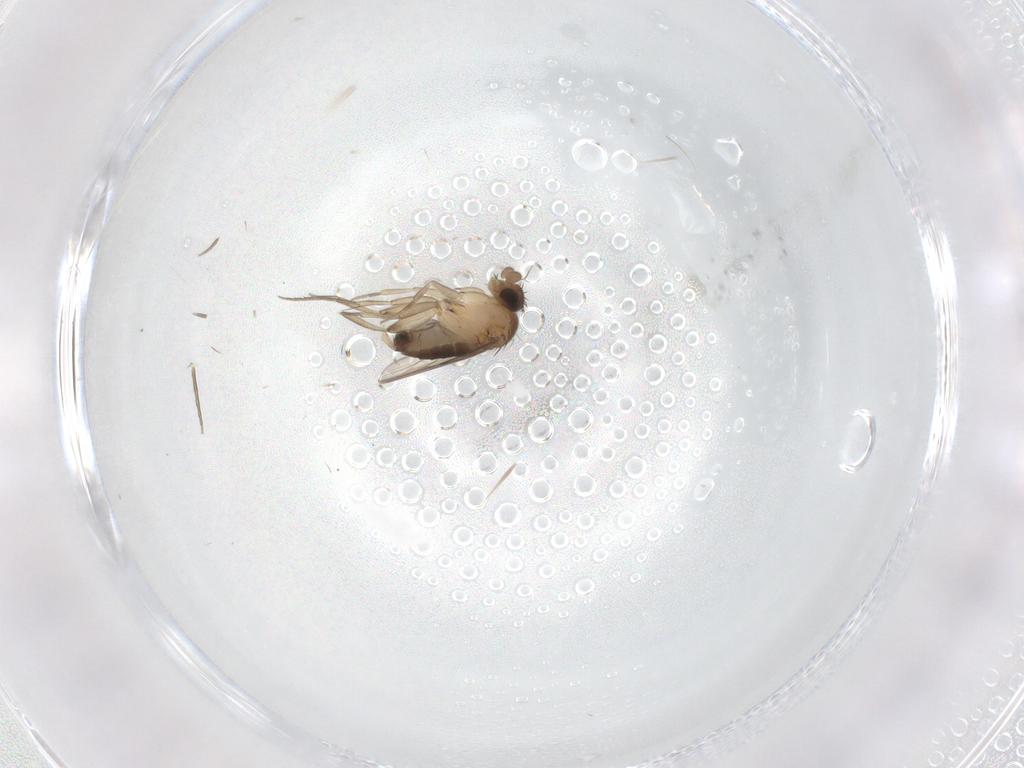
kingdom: Animalia
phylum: Arthropoda
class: Insecta
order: Diptera
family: Phoridae
